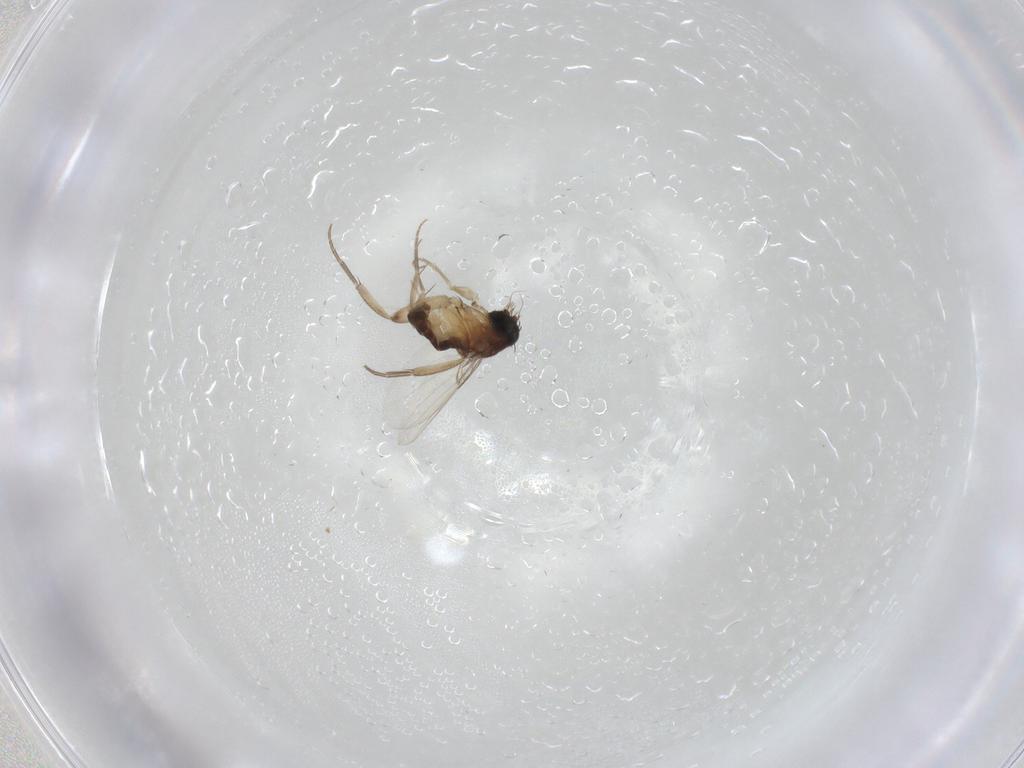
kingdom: Animalia
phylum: Arthropoda
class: Insecta
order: Diptera
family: Phoridae
